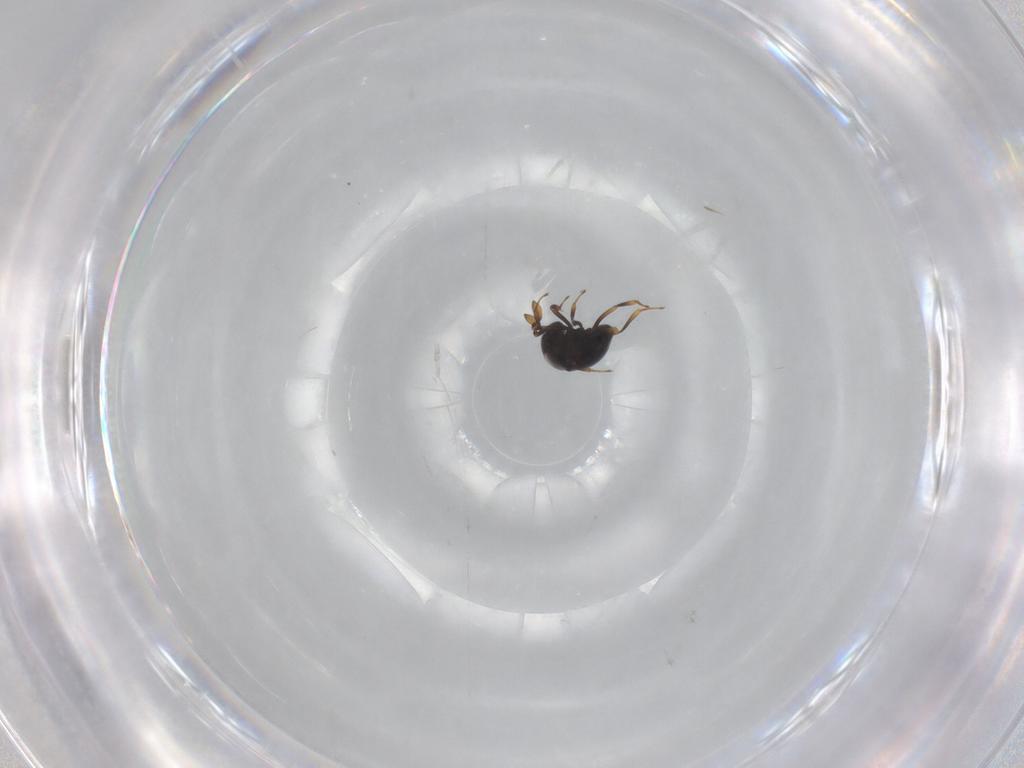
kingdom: Animalia
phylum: Arthropoda
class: Insecta
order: Hymenoptera
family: Scelionidae
